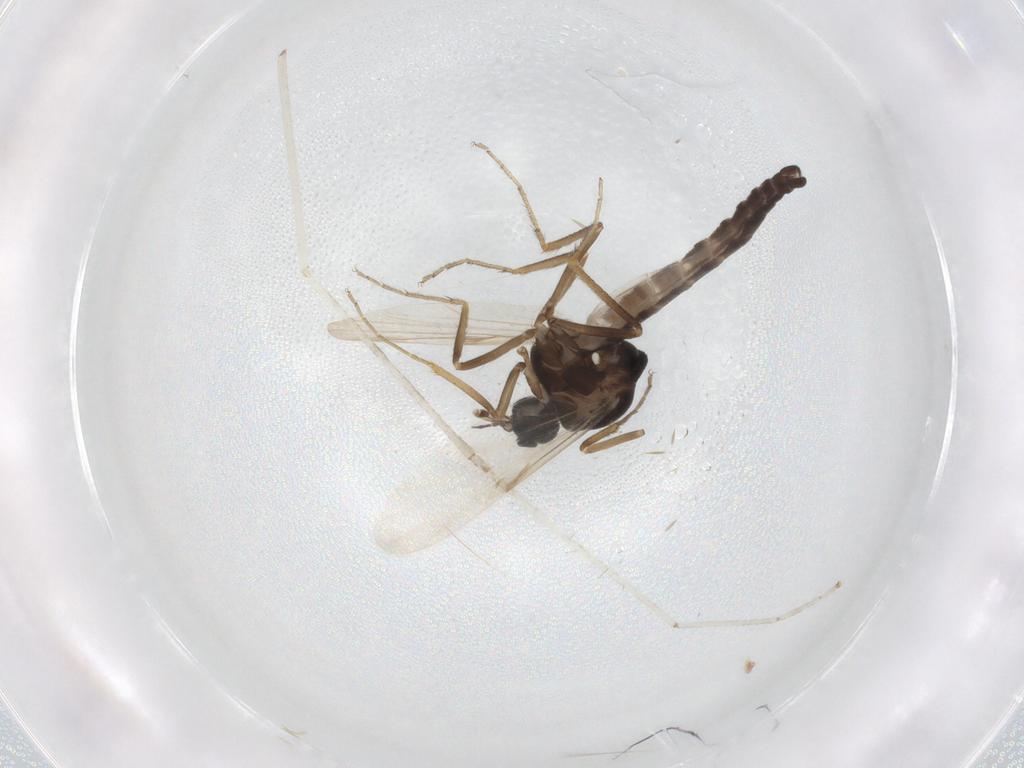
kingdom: Animalia
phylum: Arthropoda
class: Insecta
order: Diptera
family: Ceratopogonidae
